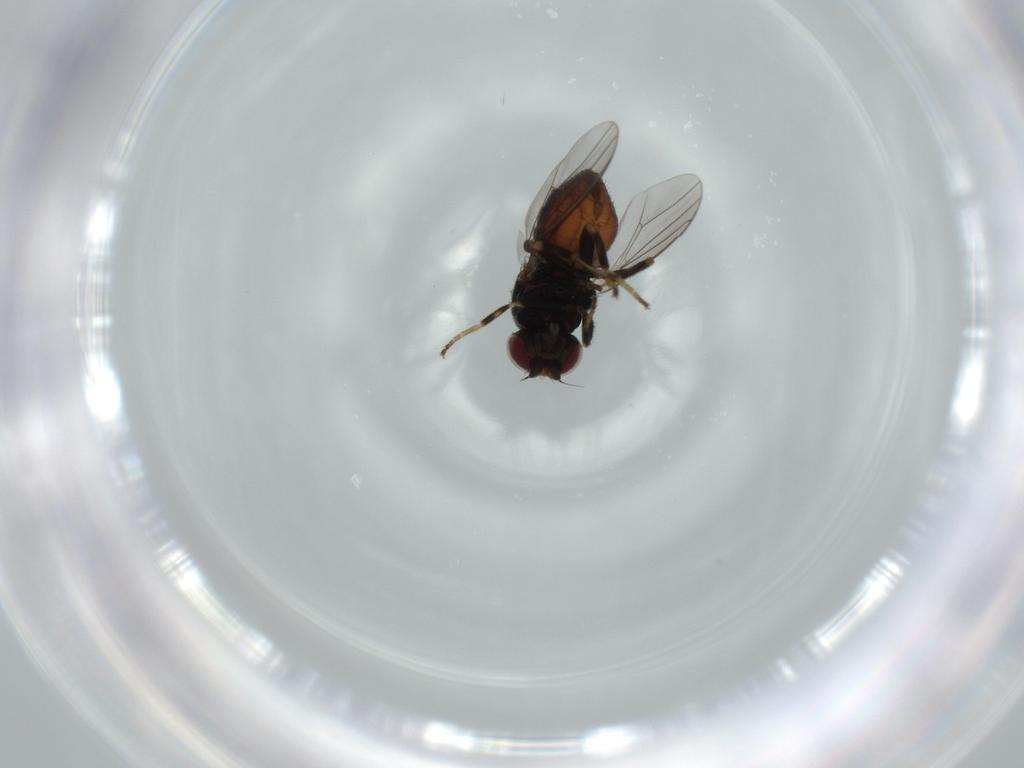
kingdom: Animalia
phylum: Arthropoda
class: Insecta
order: Diptera
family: Chloropidae
